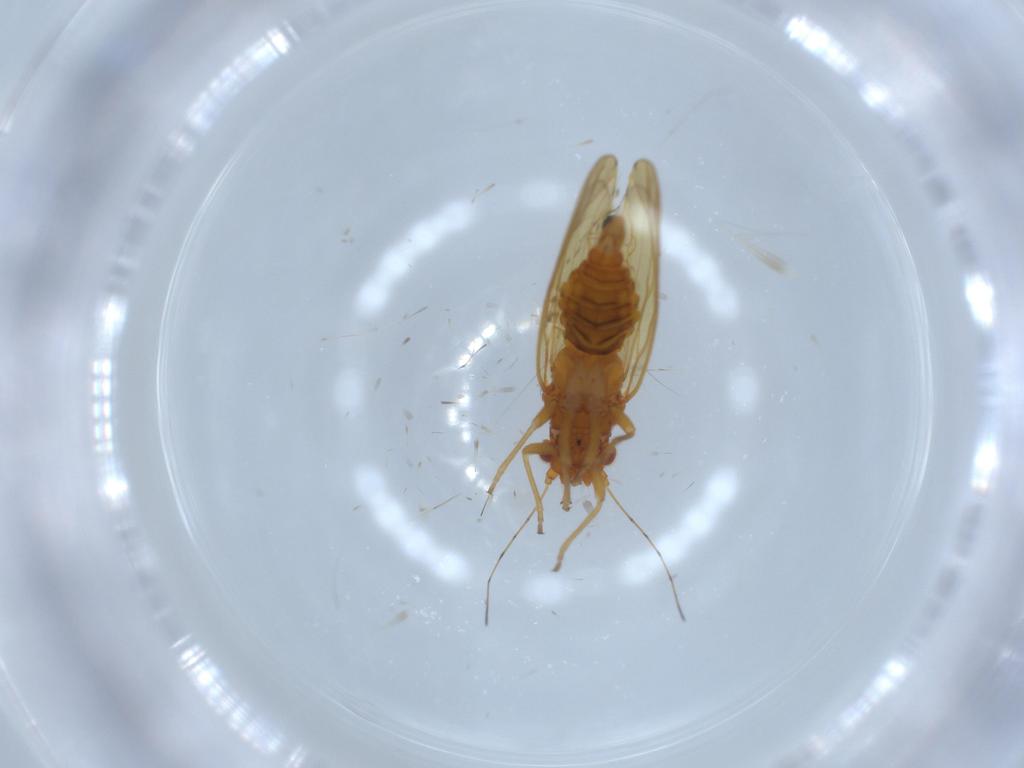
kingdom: Animalia
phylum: Arthropoda
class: Insecta
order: Hemiptera
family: Psylloidea_incertae_sedis
